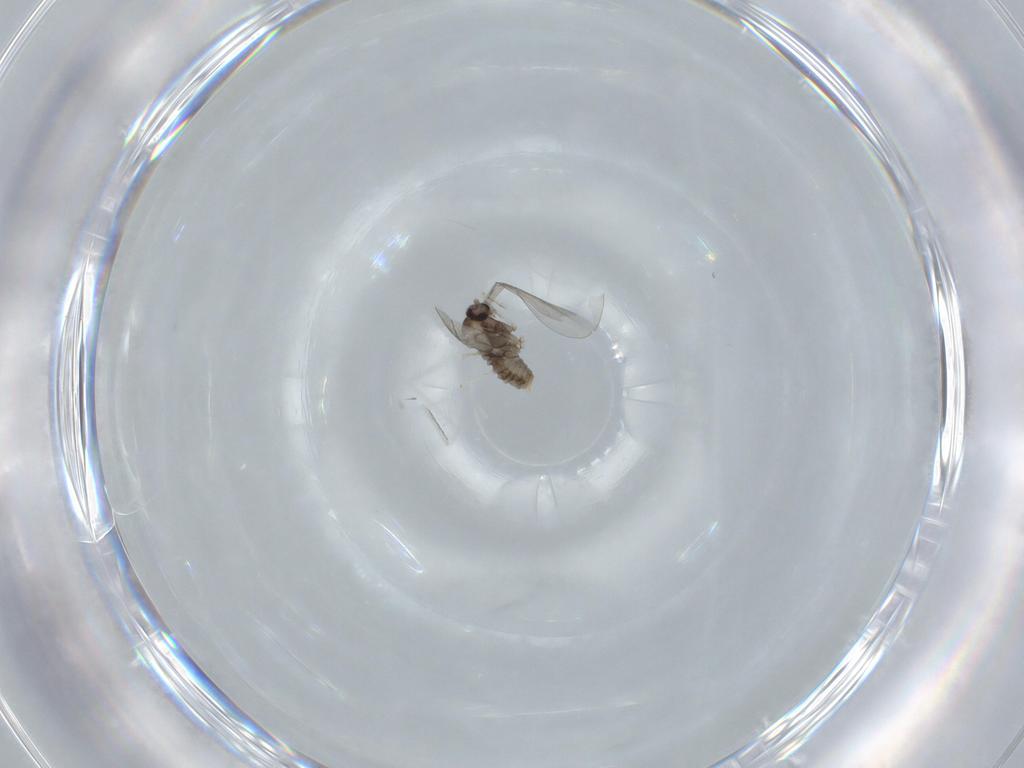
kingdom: Animalia
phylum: Arthropoda
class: Insecta
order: Diptera
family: Cecidomyiidae
